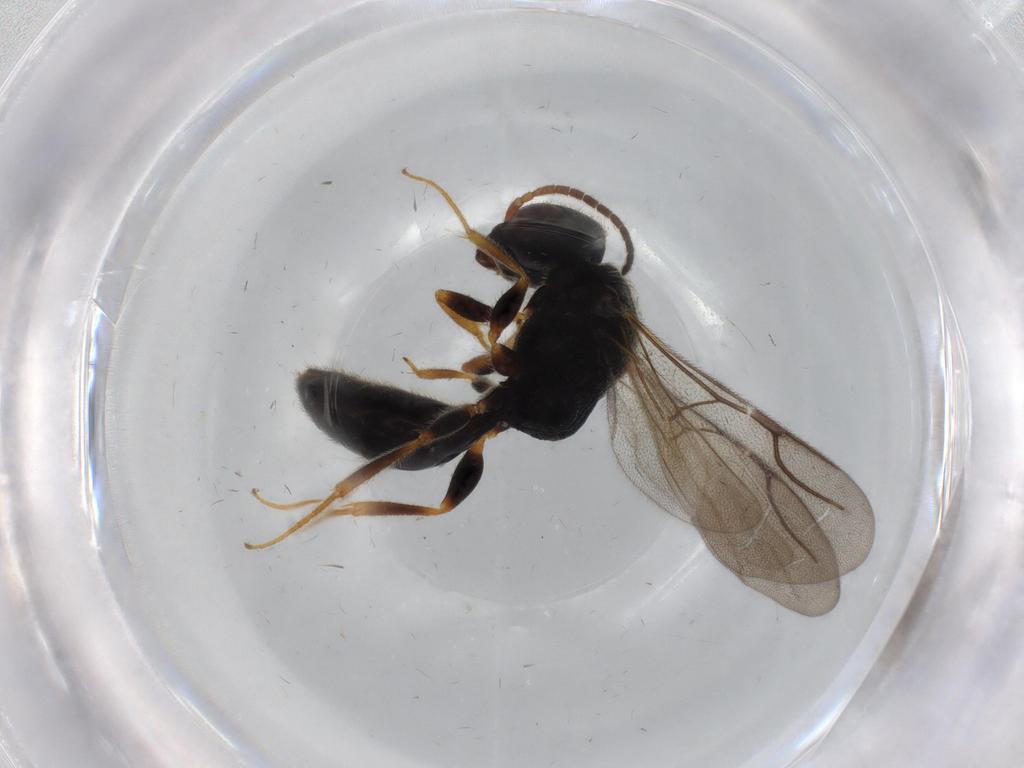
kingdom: Animalia
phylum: Arthropoda
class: Insecta
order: Hymenoptera
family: Bethylidae
